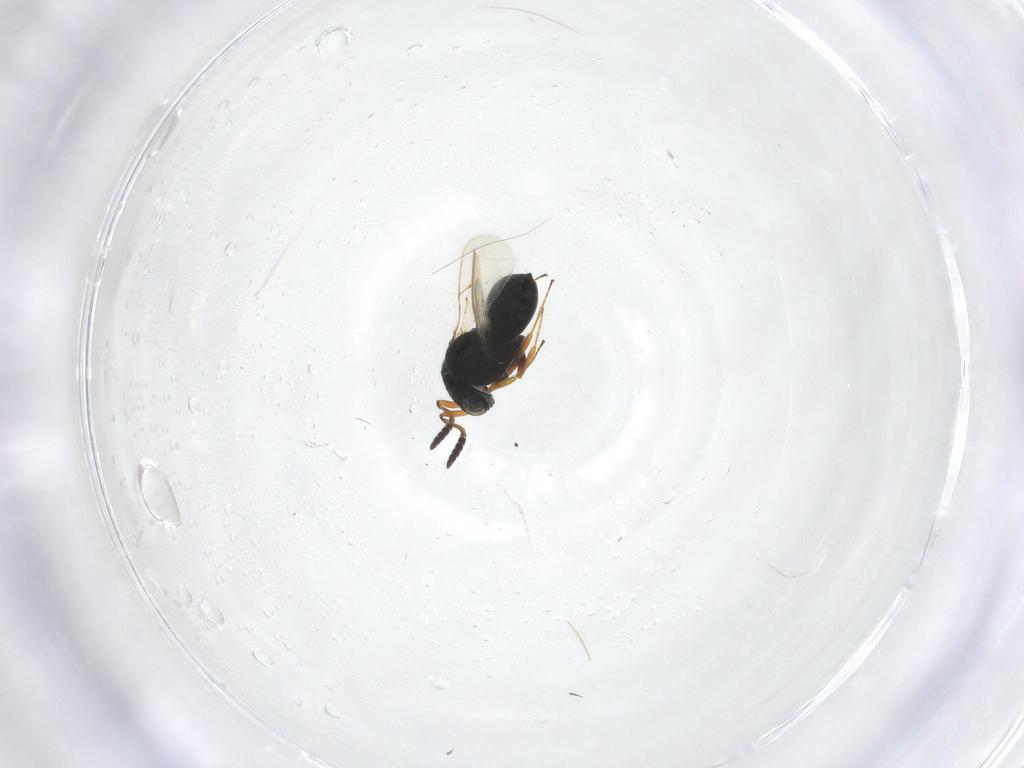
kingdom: Animalia
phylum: Arthropoda
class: Insecta
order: Hymenoptera
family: Scelionidae
